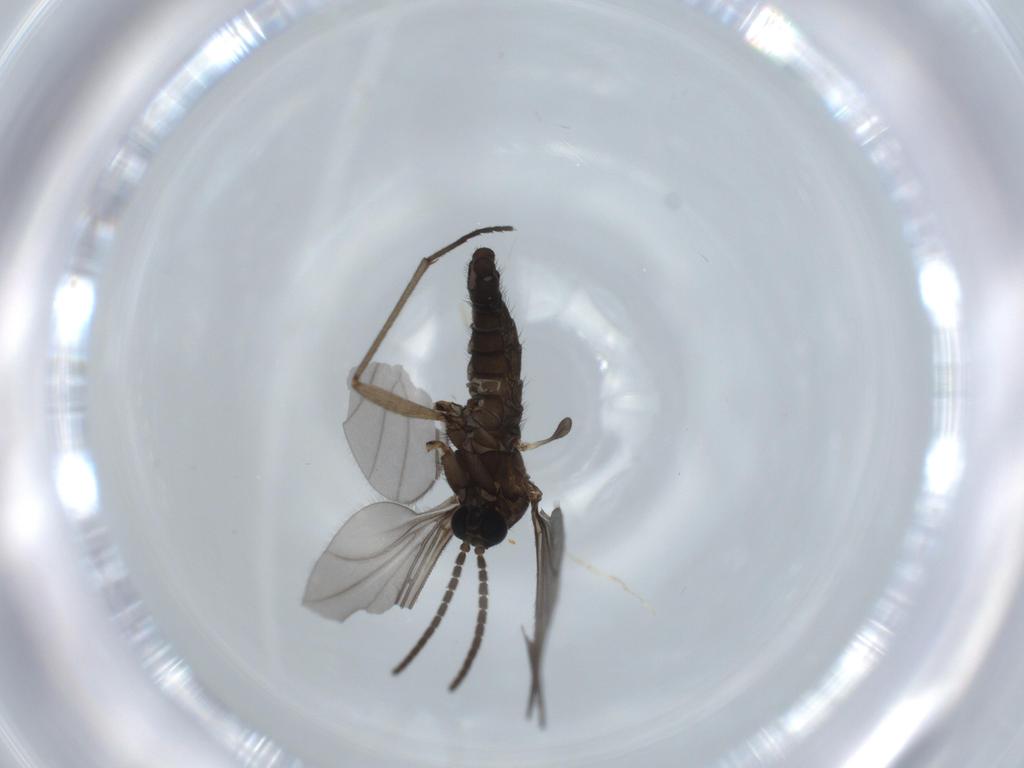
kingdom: Animalia
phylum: Arthropoda
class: Insecta
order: Diptera
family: Sciaridae
